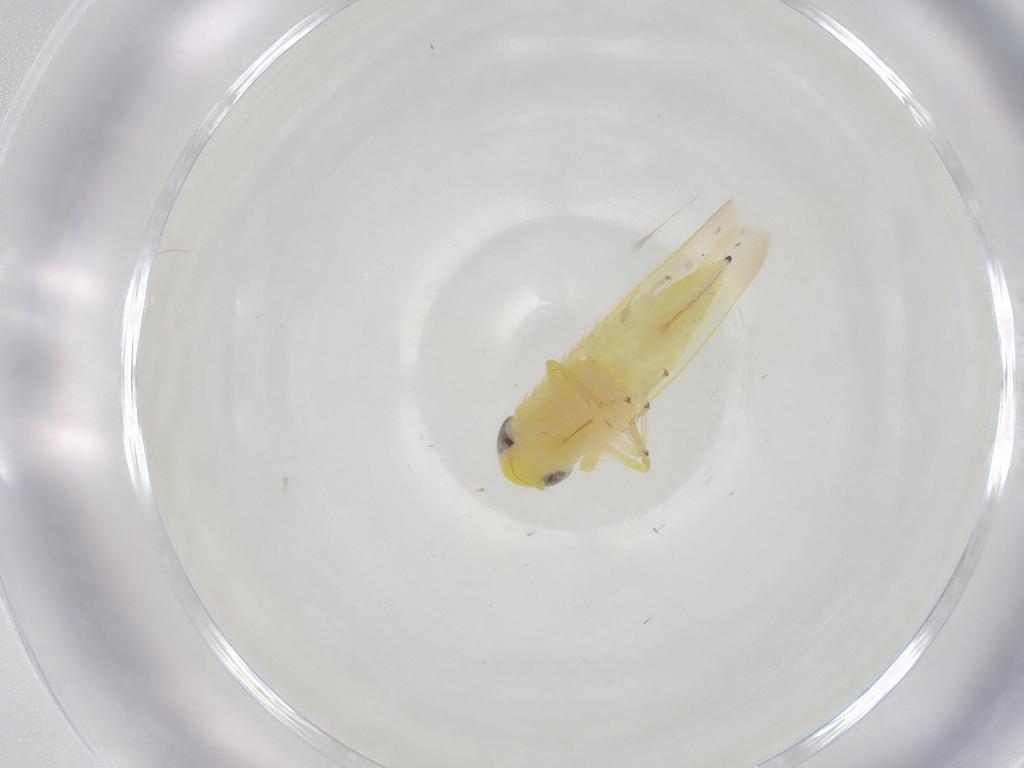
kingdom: Animalia
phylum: Arthropoda
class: Insecta
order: Hemiptera
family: Cicadellidae
